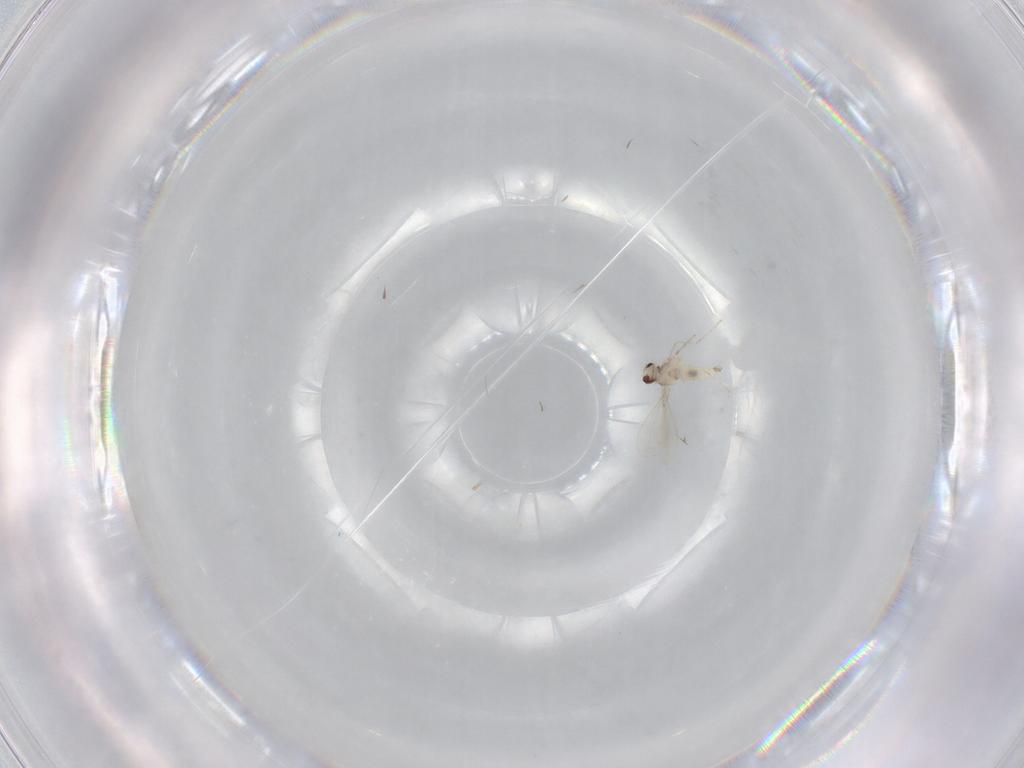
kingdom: Animalia
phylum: Arthropoda
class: Insecta
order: Diptera
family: Cecidomyiidae
